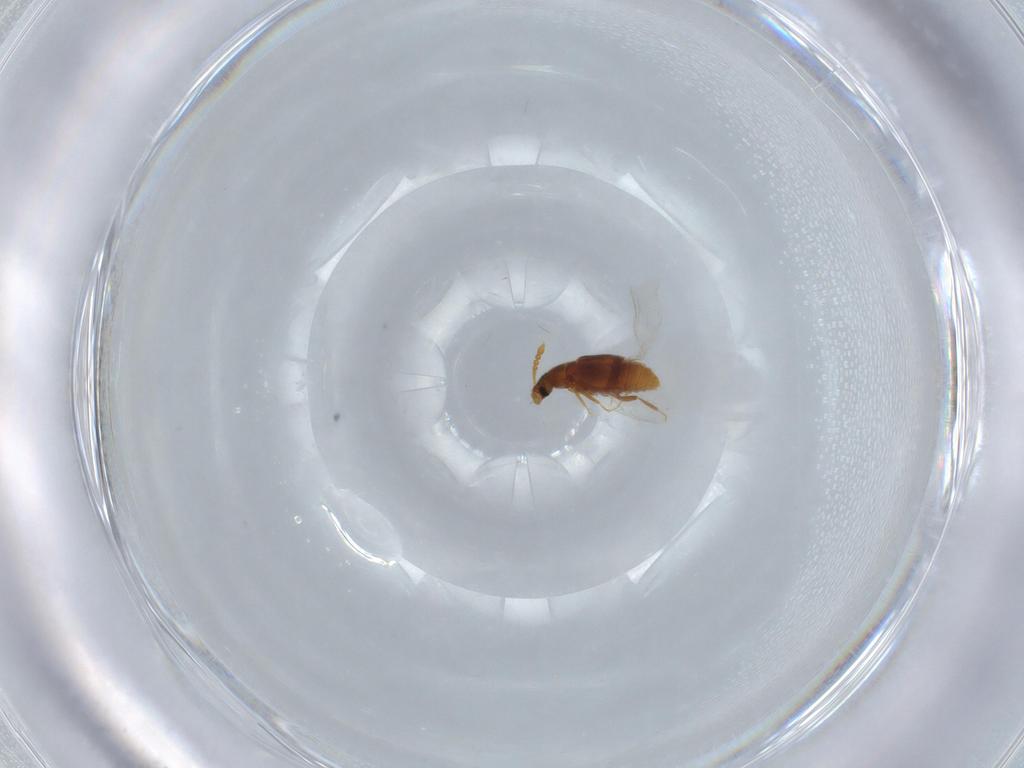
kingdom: Animalia
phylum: Arthropoda
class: Insecta
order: Coleoptera
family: Staphylinidae
